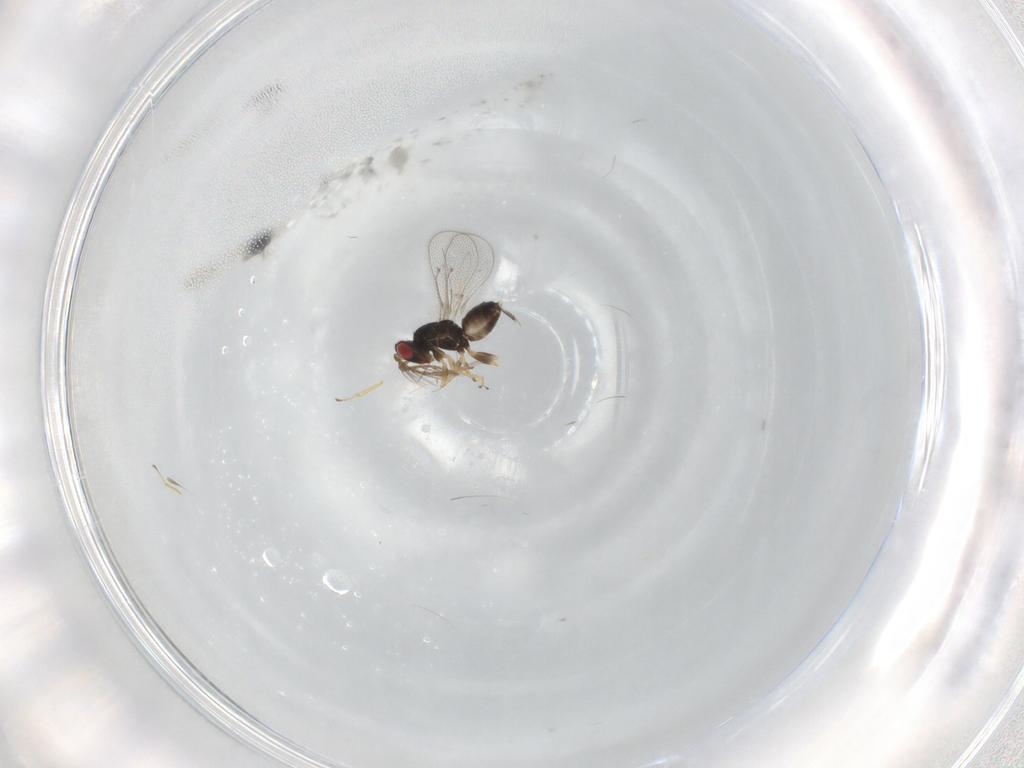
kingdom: Animalia
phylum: Arthropoda
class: Insecta
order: Hymenoptera
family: Eulophidae
